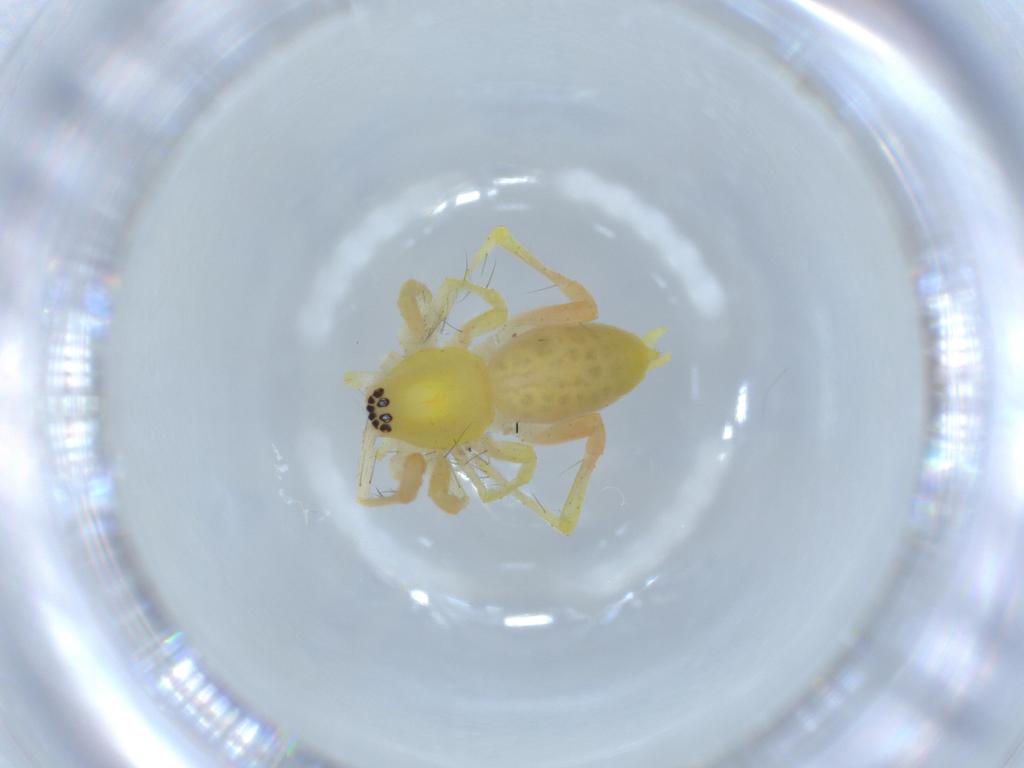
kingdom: Animalia
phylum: Arthropoda
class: Arachnida
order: Araneae
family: Anyphaenidae
